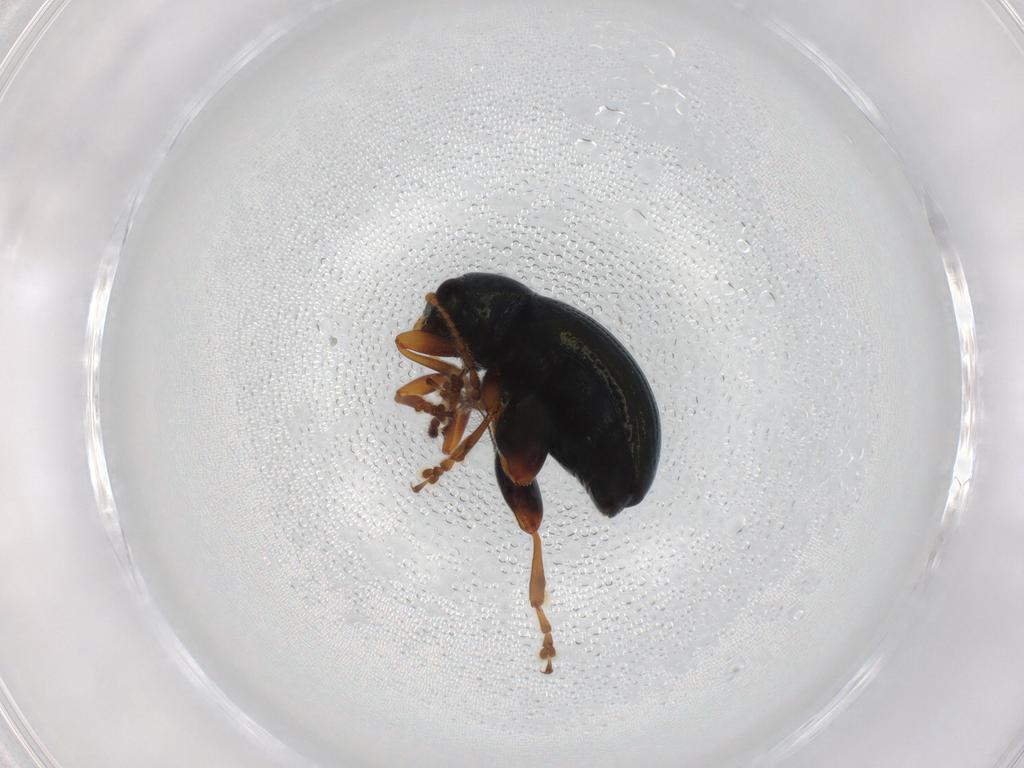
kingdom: Animalia
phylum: Arthropoda
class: Insecta
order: Coleoptera
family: Chrysomelidae
